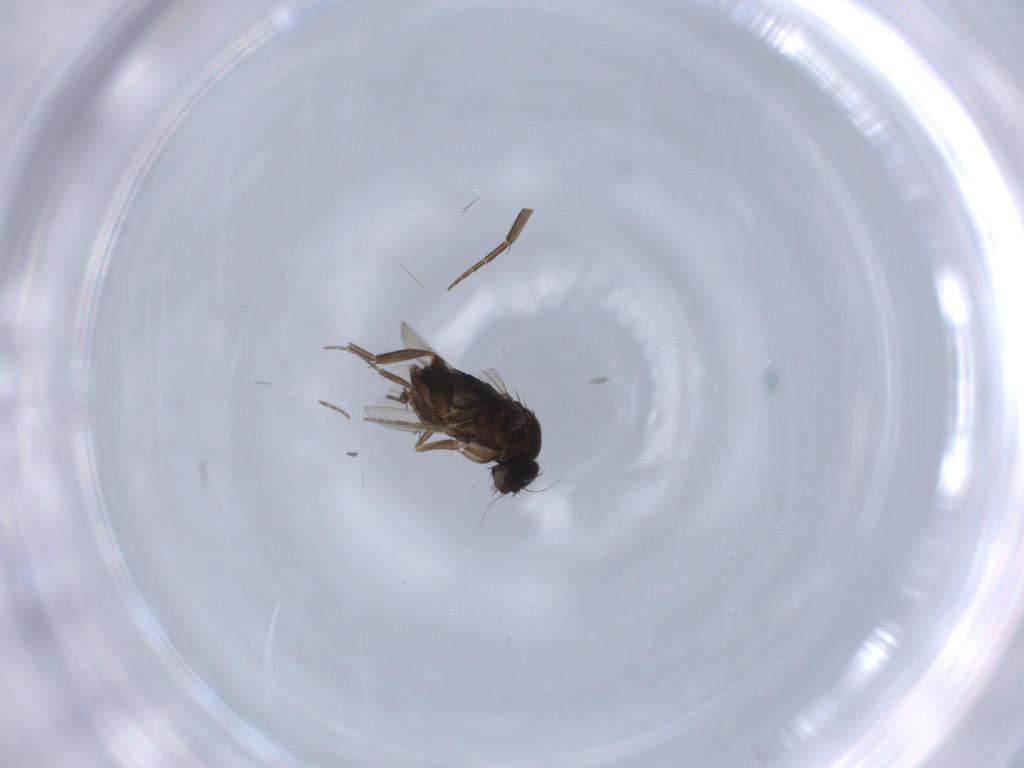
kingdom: Animalia
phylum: Arthropoda
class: Insecta
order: Diptera
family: Phoridae
